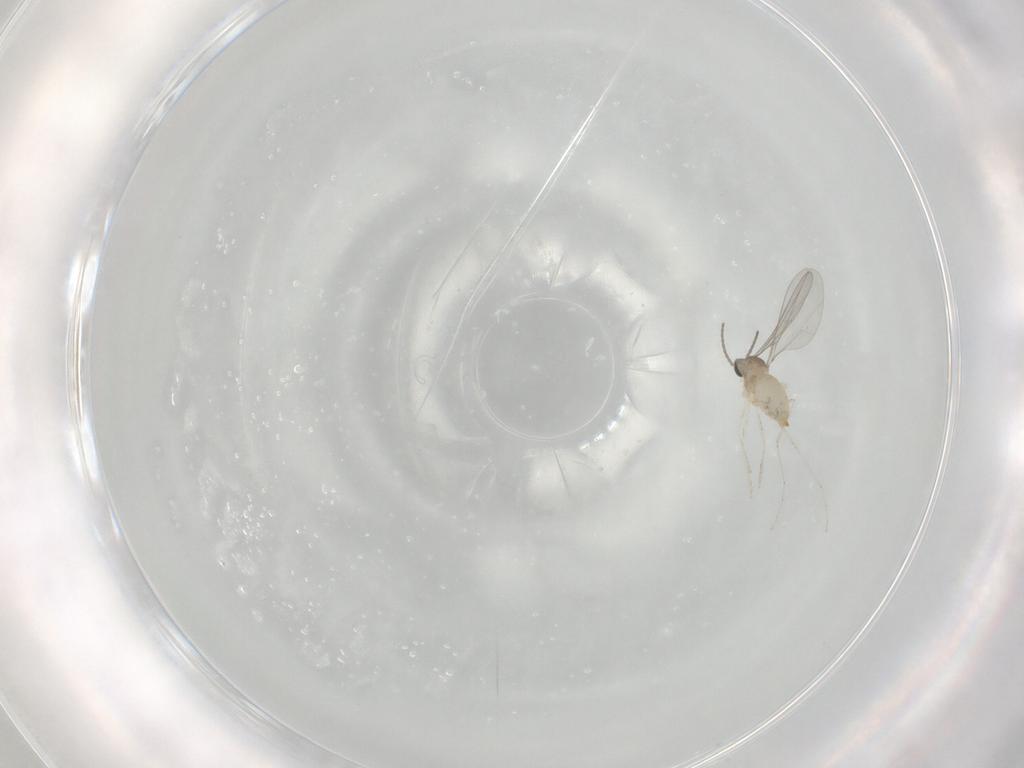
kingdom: Animalia
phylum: Arthropoda
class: Insecta
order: Diptera
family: Cecidomyiidae
